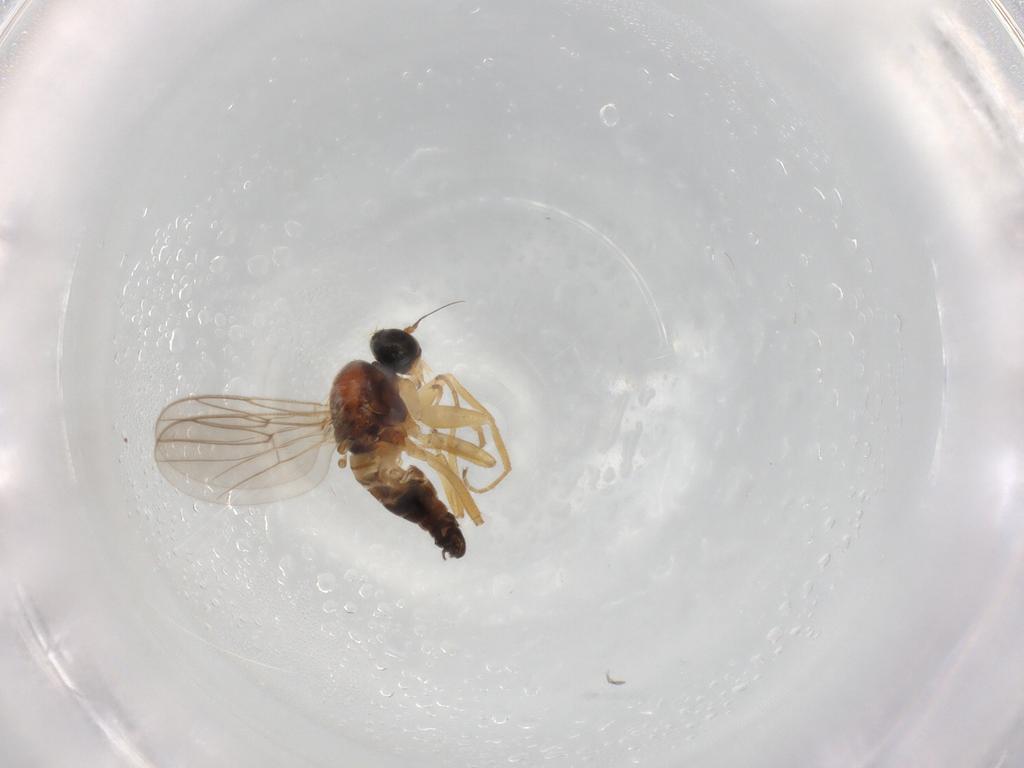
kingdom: Animalia
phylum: Arthropoda
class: Insecta
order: Diptera
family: Hybotidae
